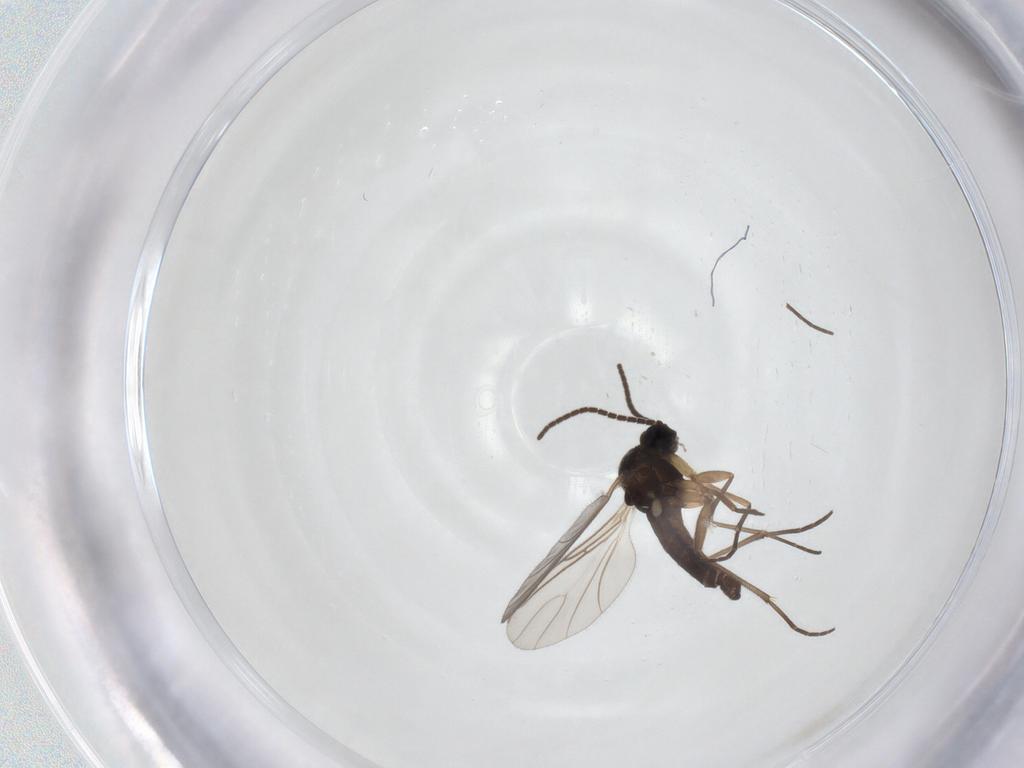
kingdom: Animalia
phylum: Arthropoda
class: Insecta
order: Diptera
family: Sciaridae
